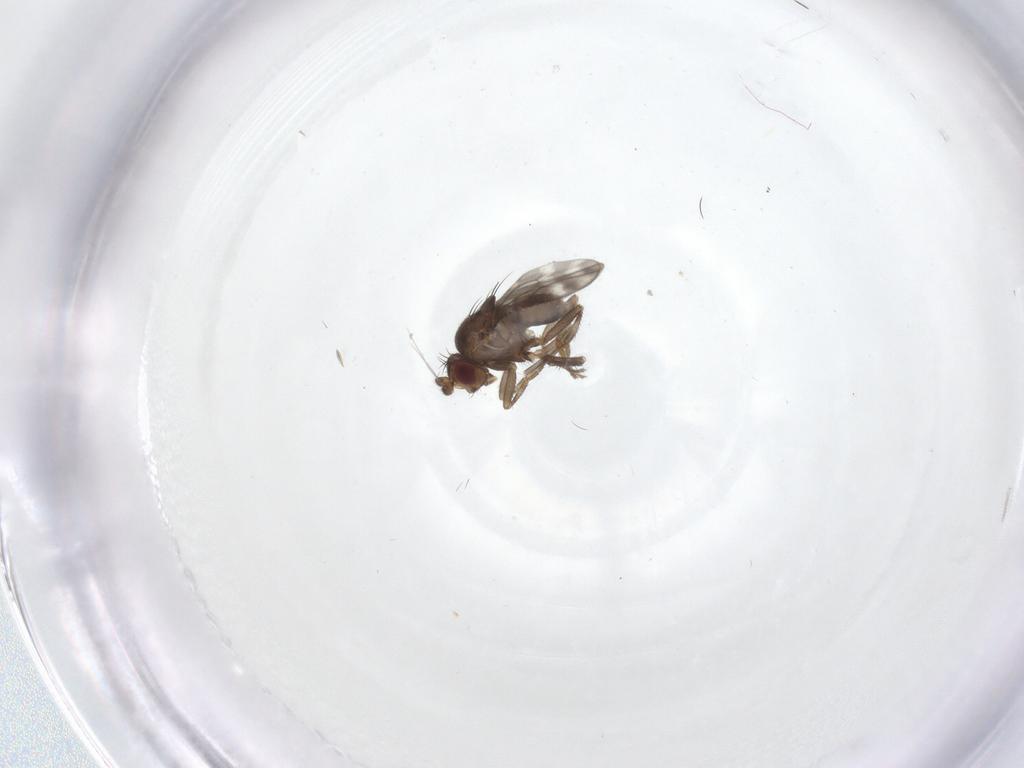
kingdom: Animalia
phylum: Arthropoda
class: Insecta
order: Diptera
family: Sphaeroceridae
